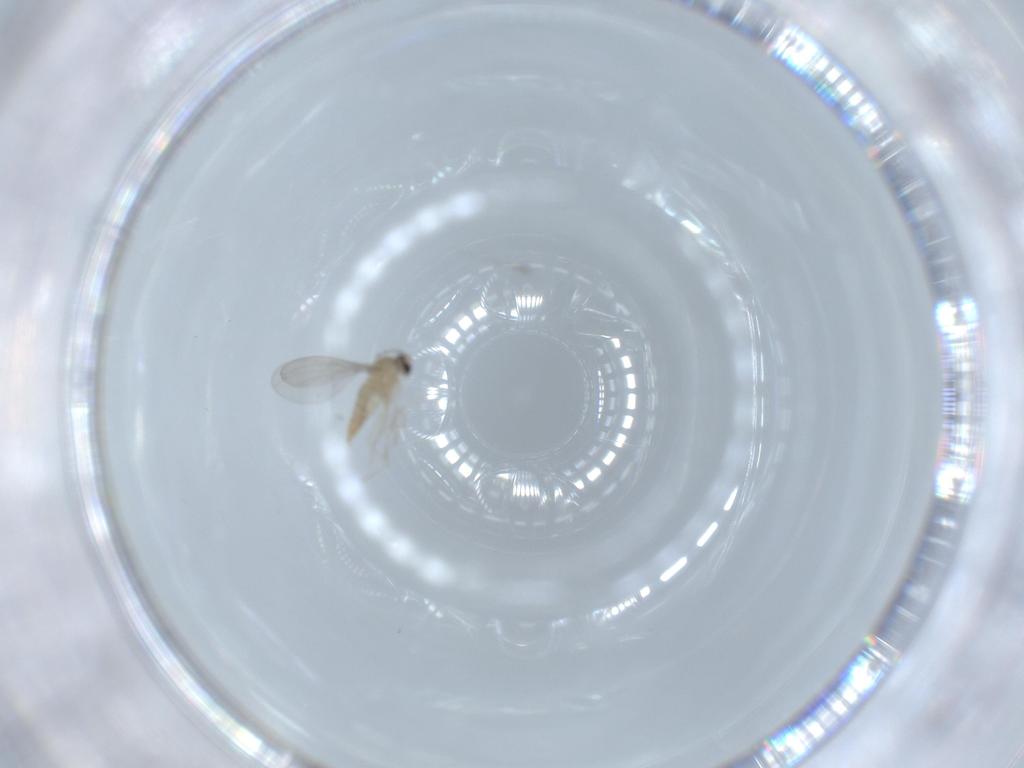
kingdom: Animalia
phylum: Arthropoda
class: Insecta
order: Diptera
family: Cecidomyiidae
